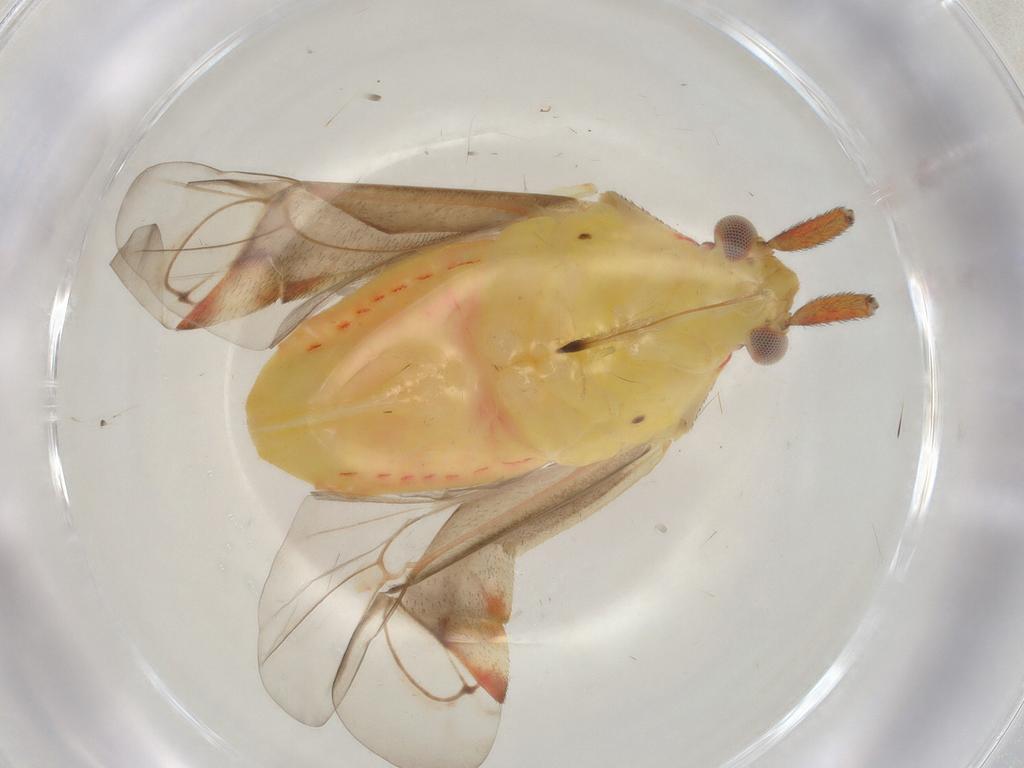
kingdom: Animalia
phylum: Arthropoda
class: Insecta
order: Hemiptera
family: Miridae
